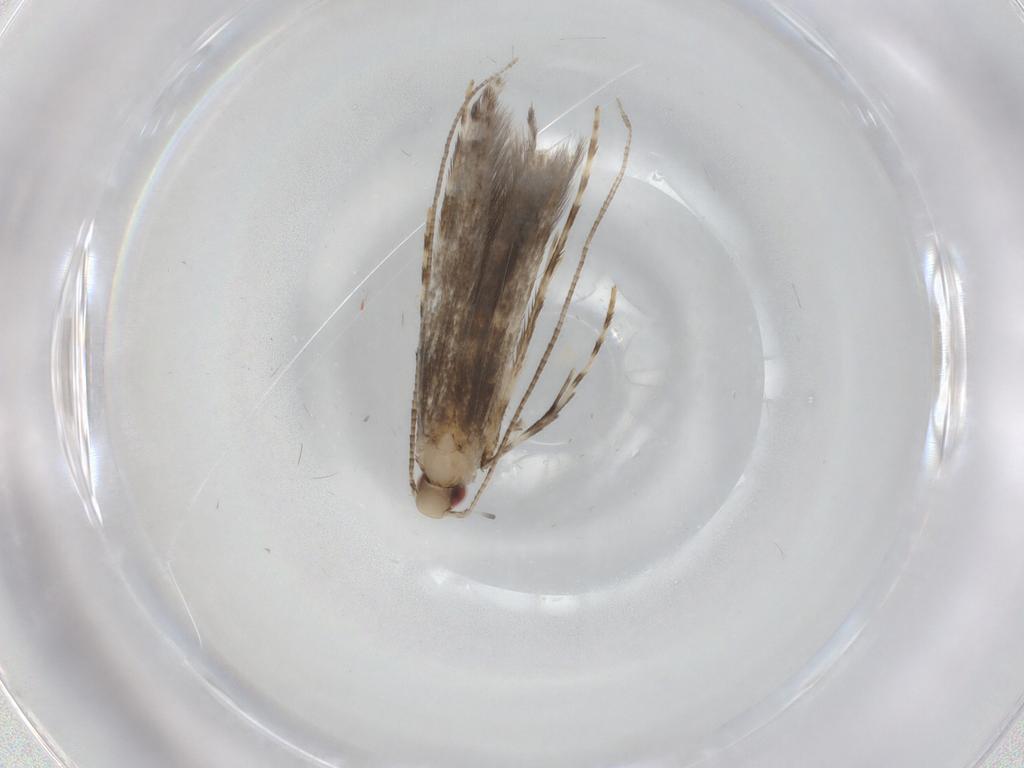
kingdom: Animalia
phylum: Arthropoda
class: Insecta
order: Lepidoptera
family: Gracillariidae
